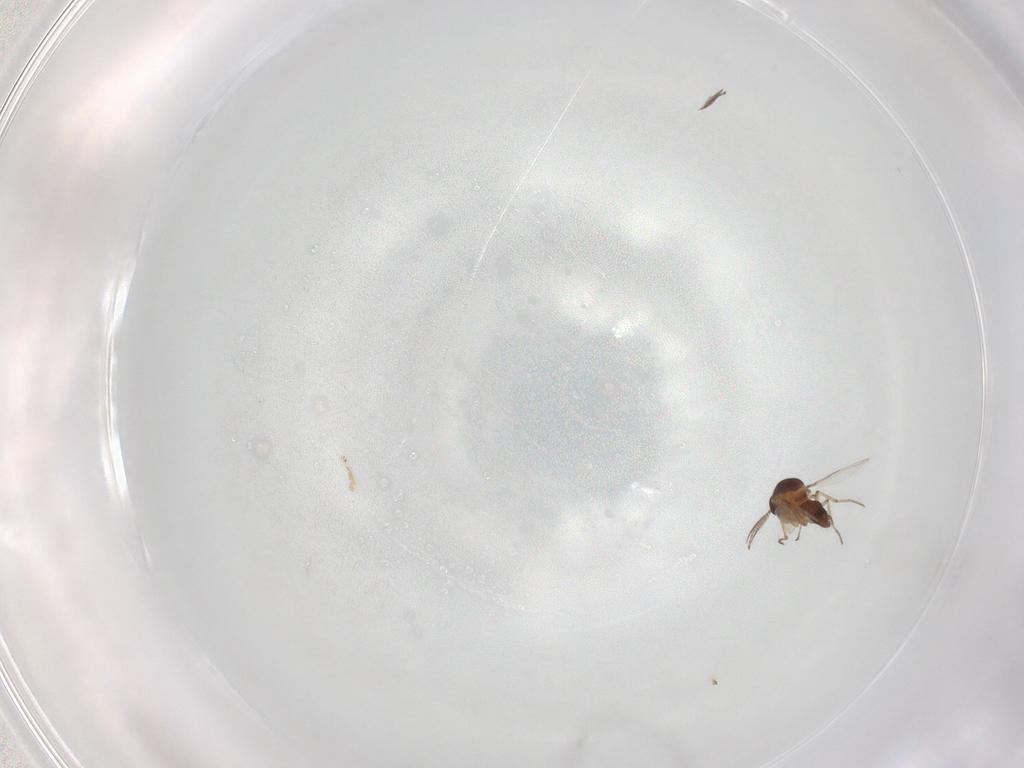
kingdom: Animalia
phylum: Arthropoda
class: Insecta
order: Diptera
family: Ceratopogonidae
